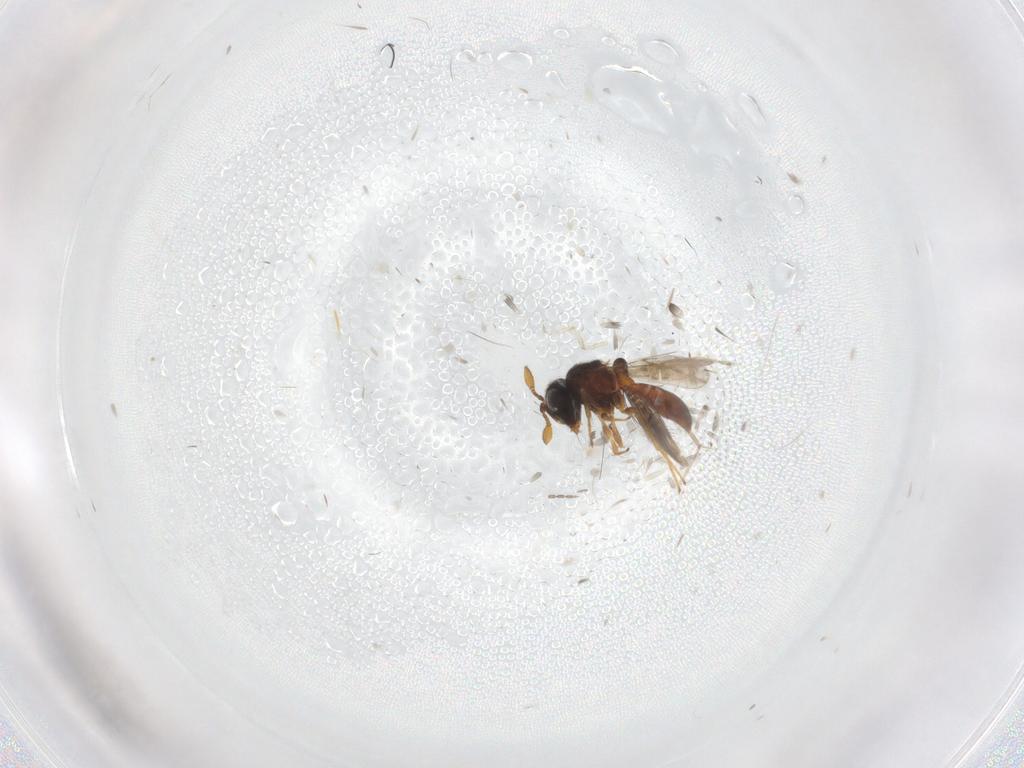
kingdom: Animalia
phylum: Arthropoda
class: Insecta
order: Hymenoptera
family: Scelionidae
